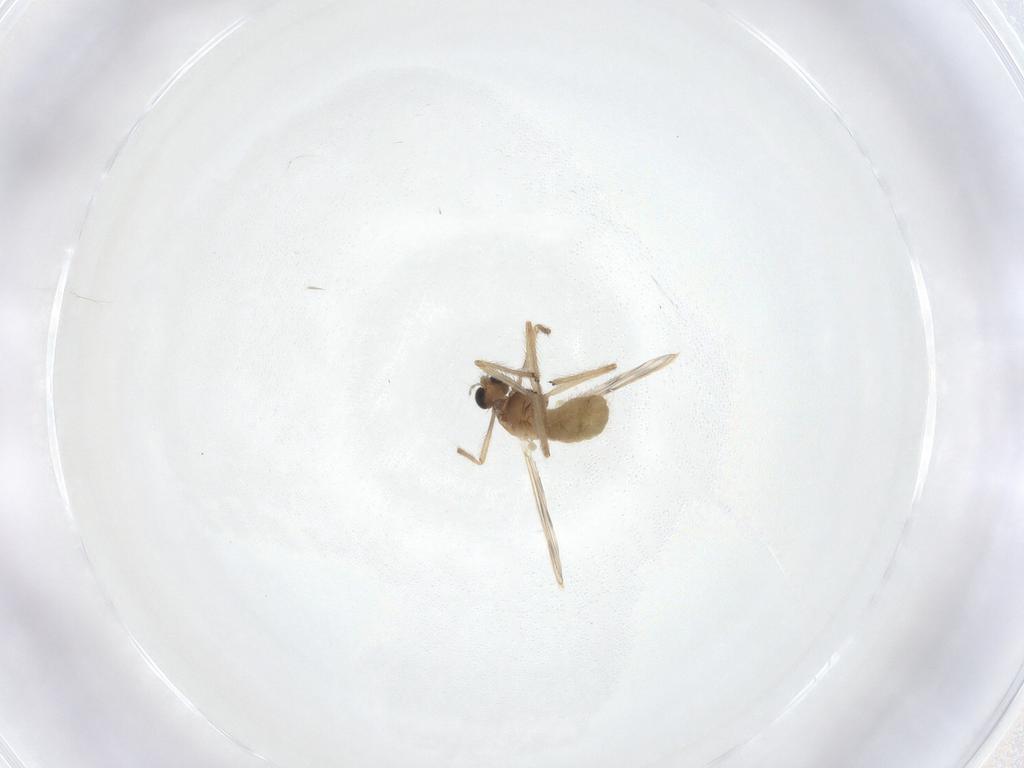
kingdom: Animalia
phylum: Arthropoda
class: Insecta
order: Diptera
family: Chironomidae
